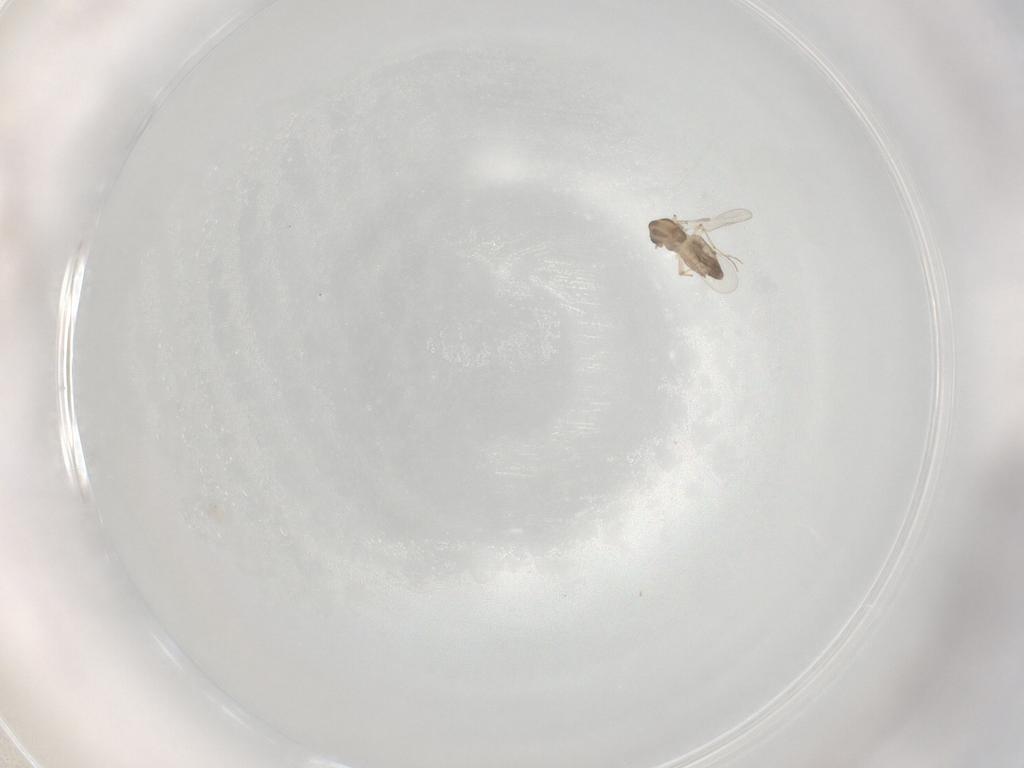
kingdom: Animalia
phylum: Arthropoda
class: Insecta
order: Diptera
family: Chironomidae
